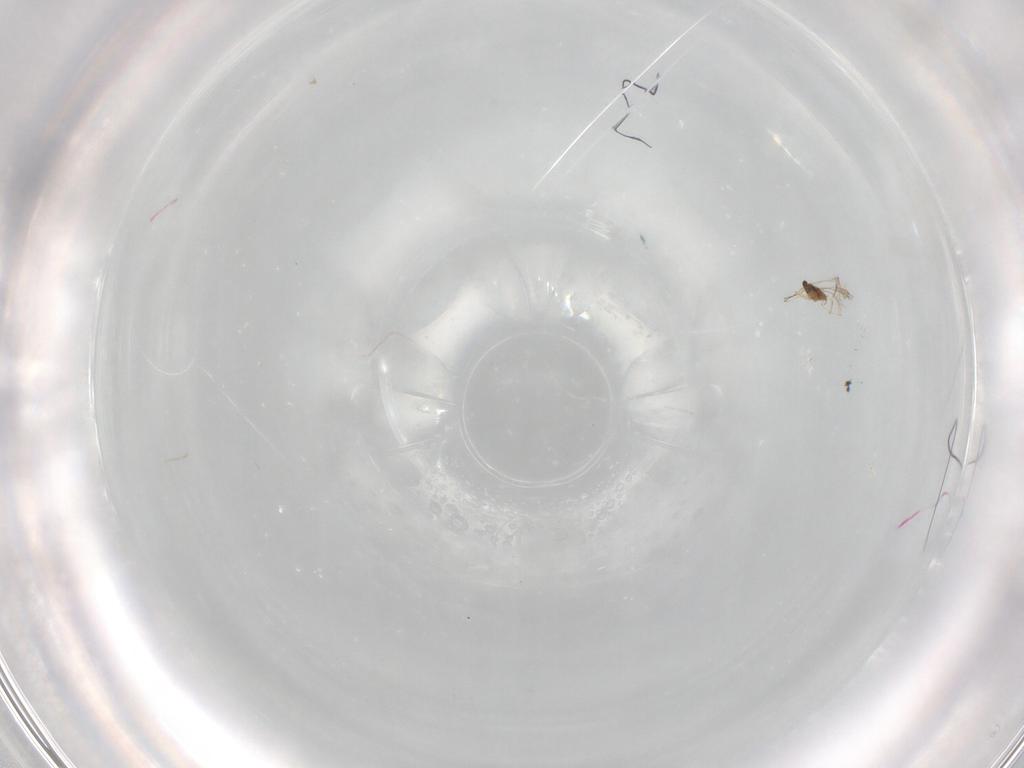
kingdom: Animalia
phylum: Arthropoda
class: Insecta
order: Hymenoptera
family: Mymaridae
